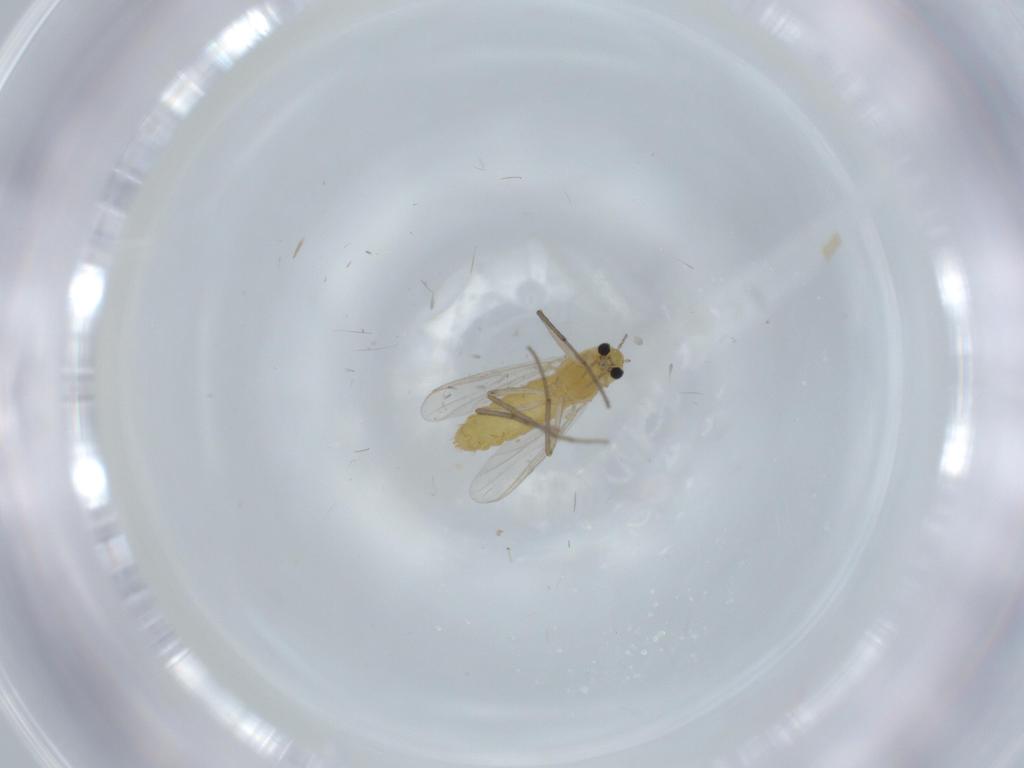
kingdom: Animalia
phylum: Arthropoda
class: Insecta
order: Diptera
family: Chironomidae
